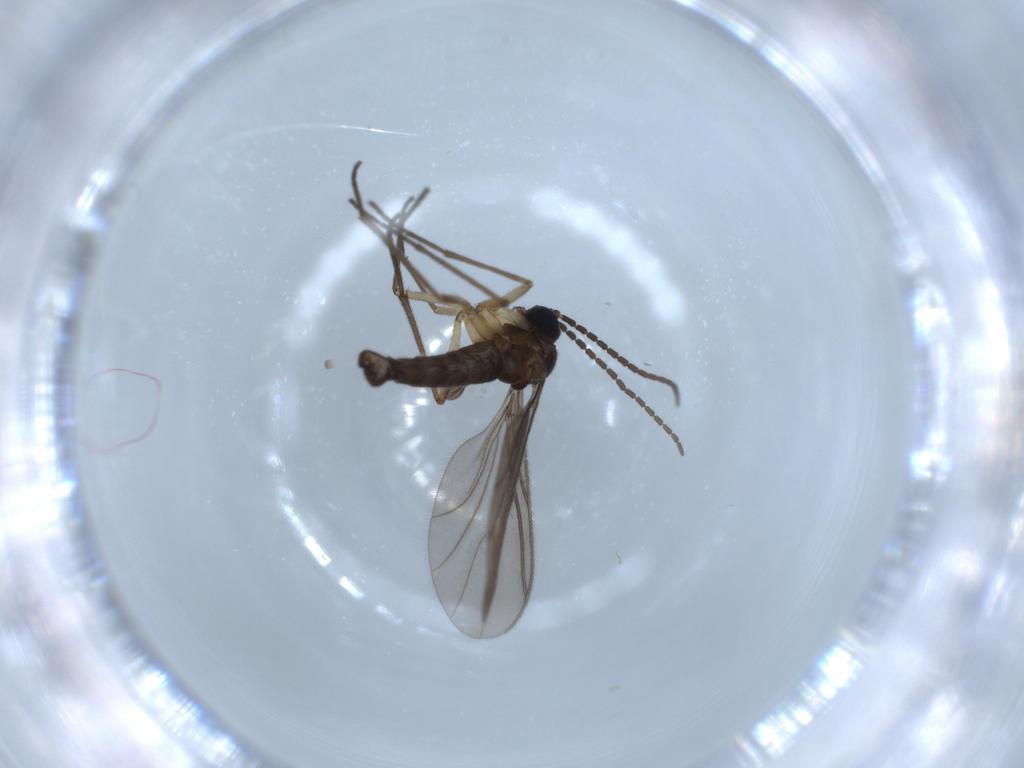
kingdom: Animalia
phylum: Arthropoda
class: Insecta
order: Diptera
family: Sciaridae
